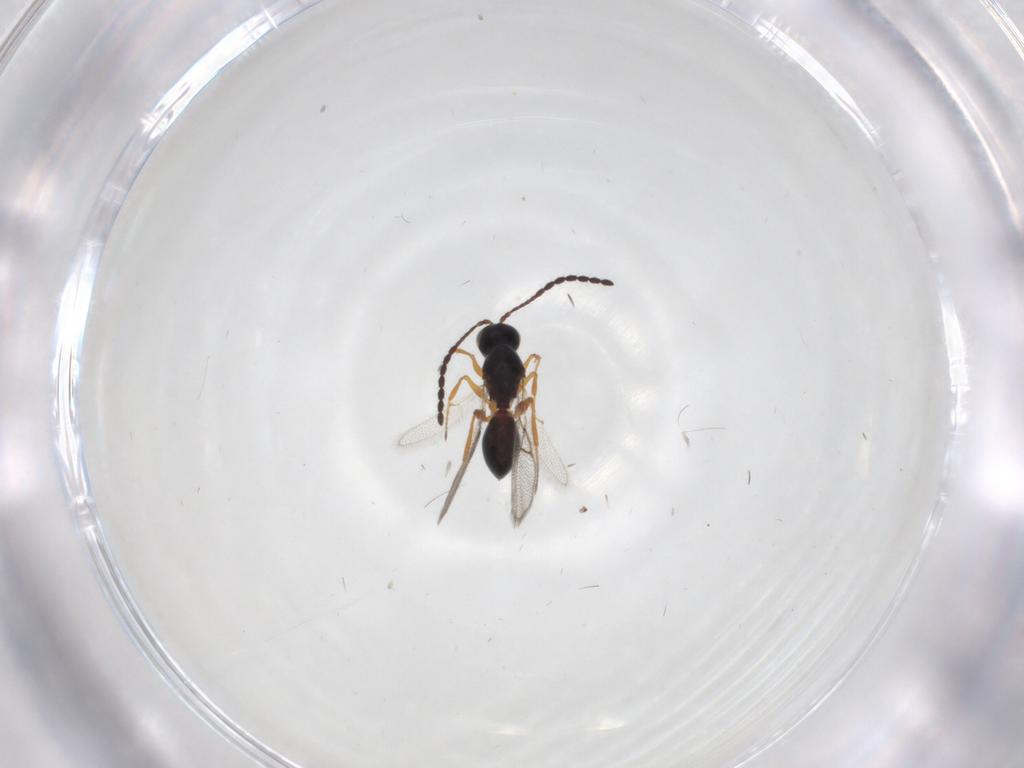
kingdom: Animalia
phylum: Arthropoda
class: Insecta
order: Hymenoptera
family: Figitidae
